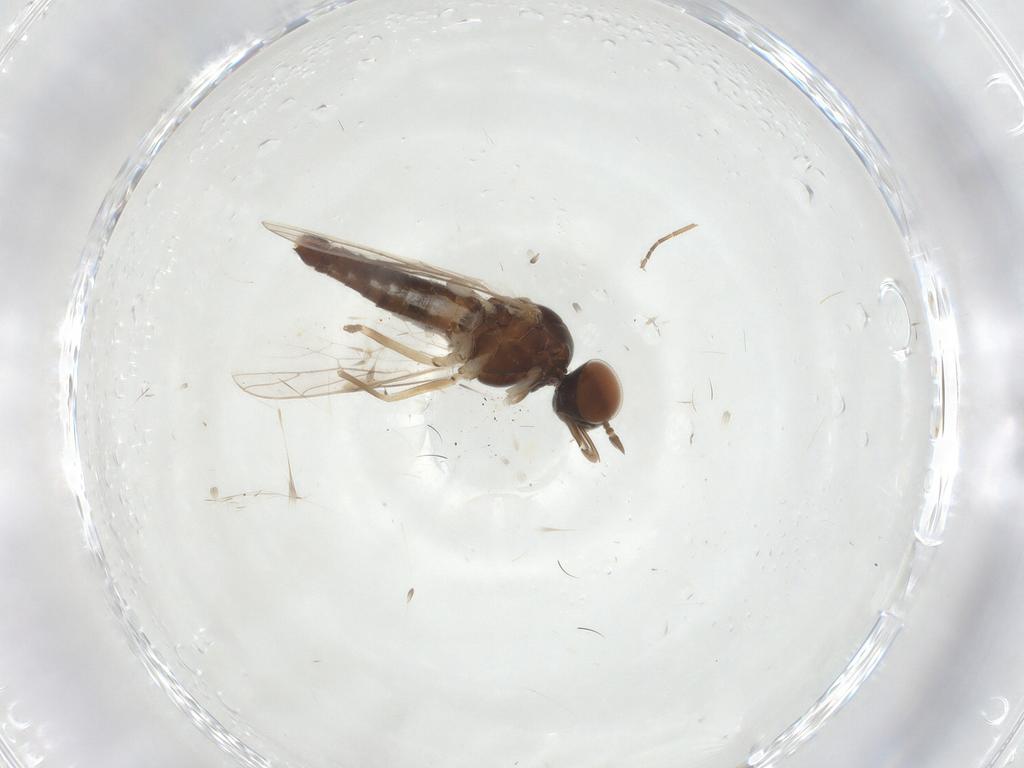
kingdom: Animalia
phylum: Arthropoda
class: Insecta
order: Diptera
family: Scenopinidae
